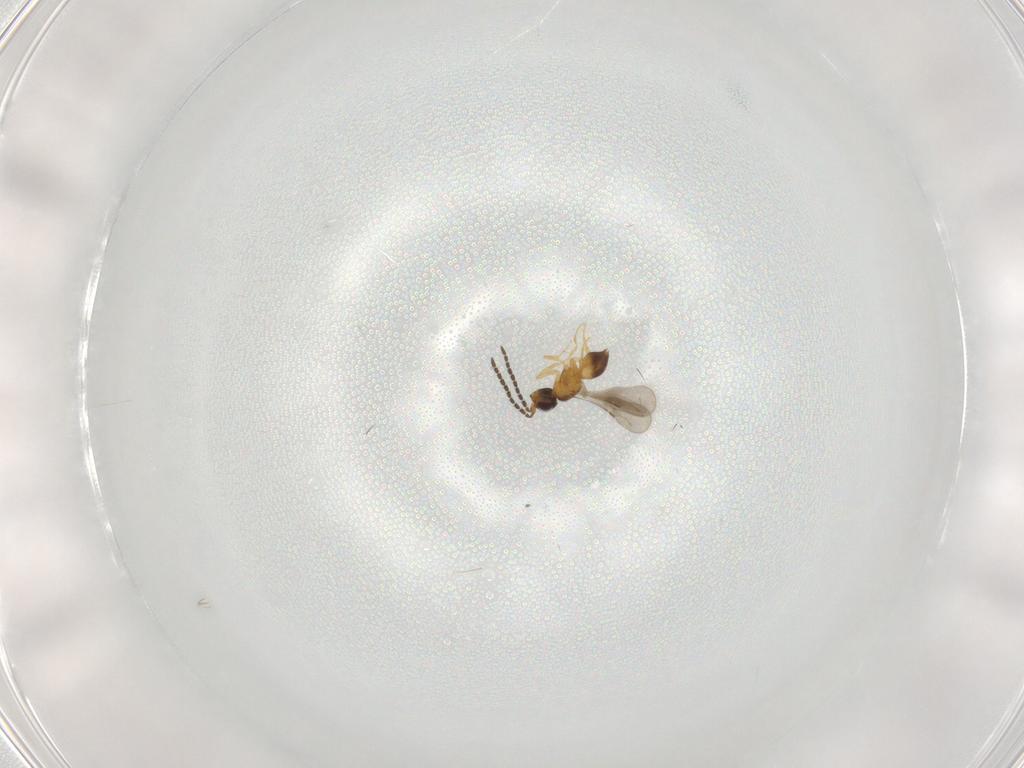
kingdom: Animalia
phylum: Arthropoda
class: Insecta
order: Hymenoptera
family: Ceraphronidae
